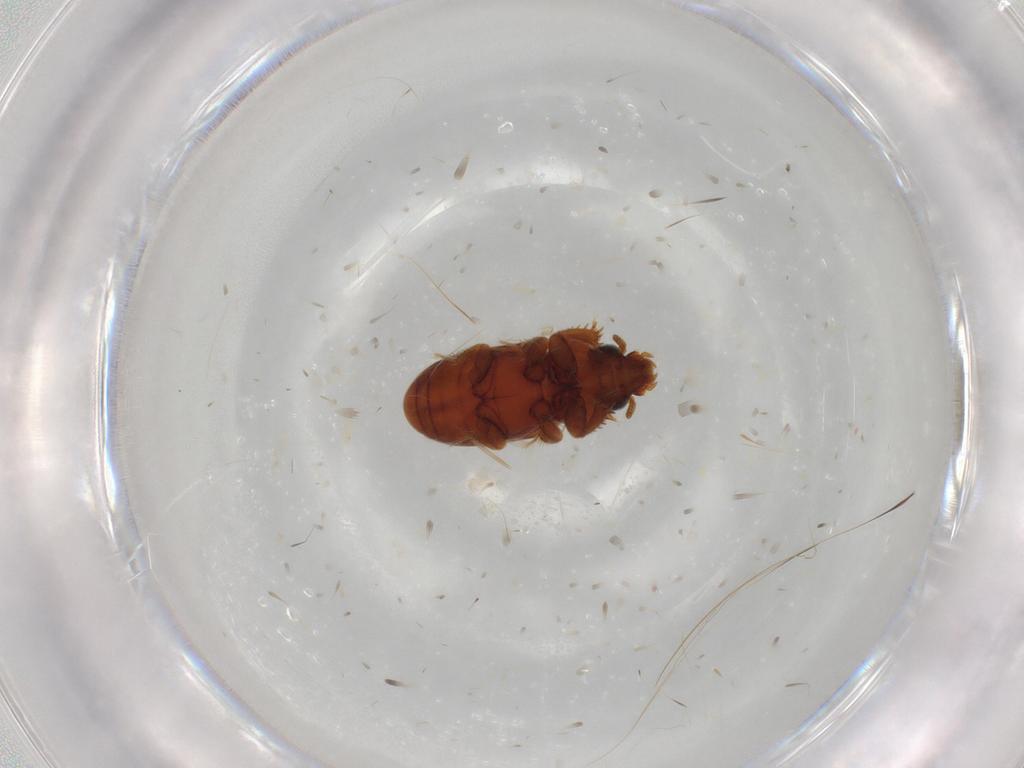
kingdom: Animalia
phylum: Arthropoda
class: Insecta
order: Coleoptera
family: Heteroceridae
